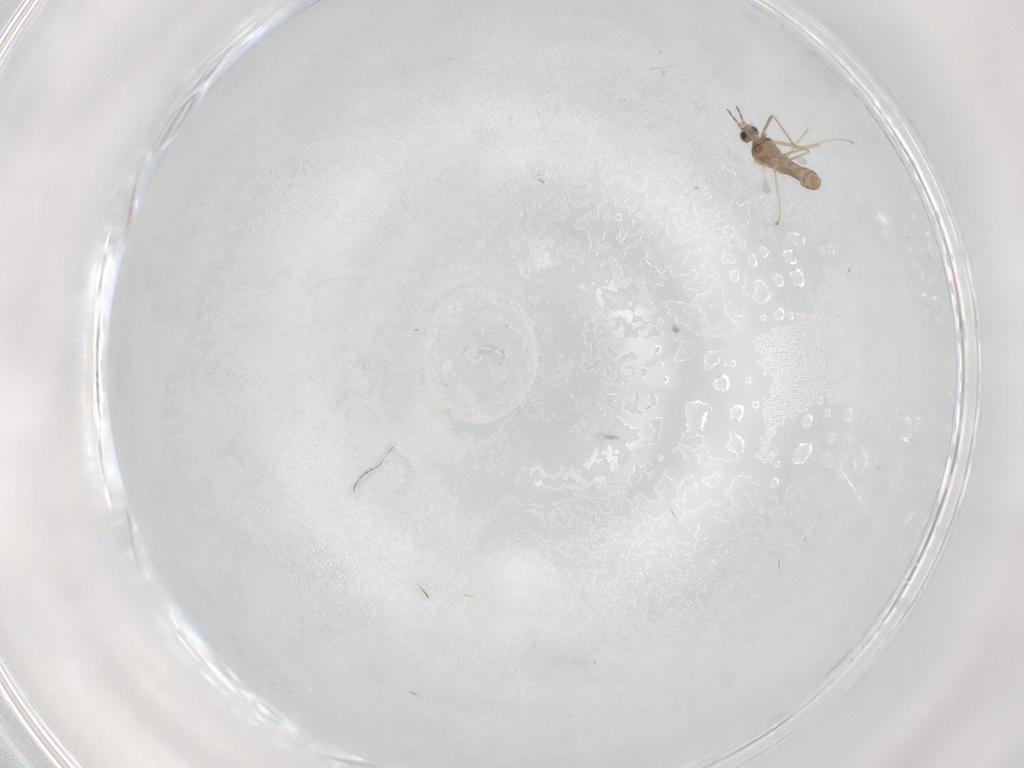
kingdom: Animalia
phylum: Arthropoda
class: Insecta
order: Diptera
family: Cecidomyiidae
